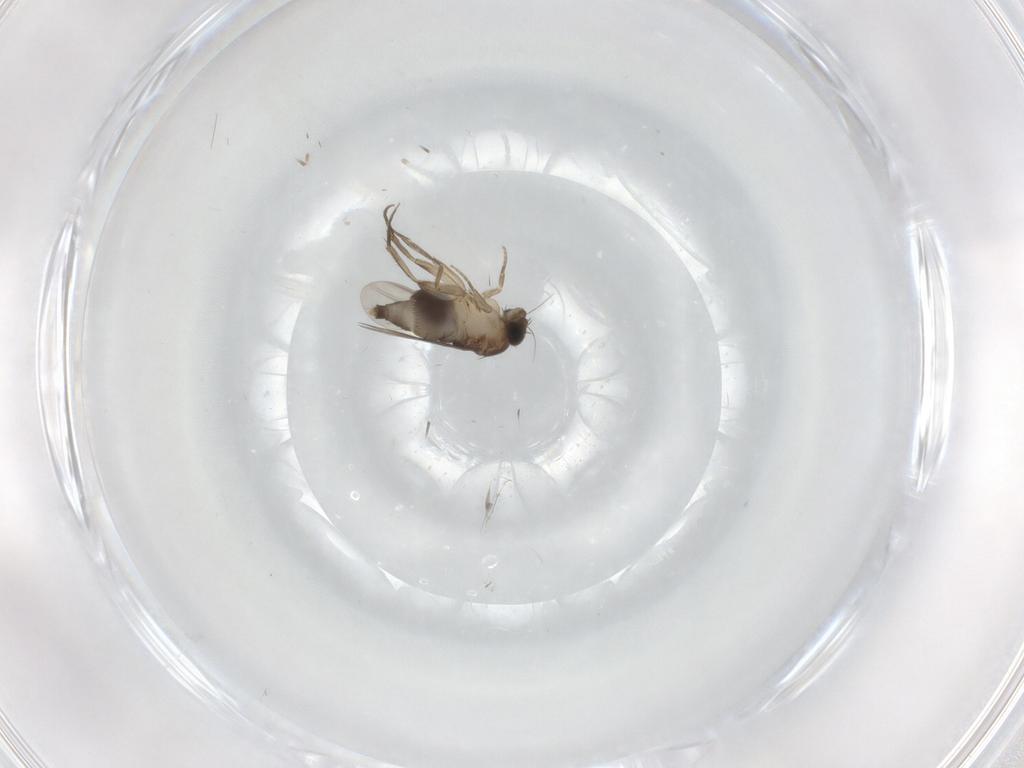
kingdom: Animalia
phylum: Arthropoda
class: Insecta
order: Diptera
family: Phoridae
